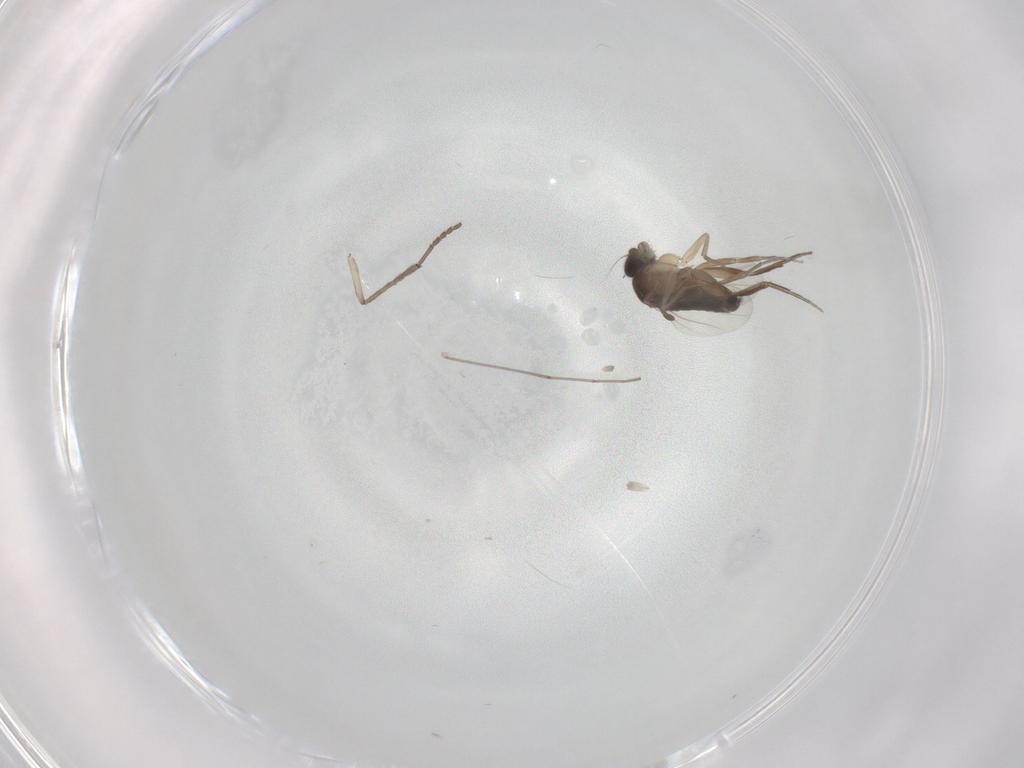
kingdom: Animalia
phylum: Arthropoda
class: Insecta
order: Diptera
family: Phoridae
